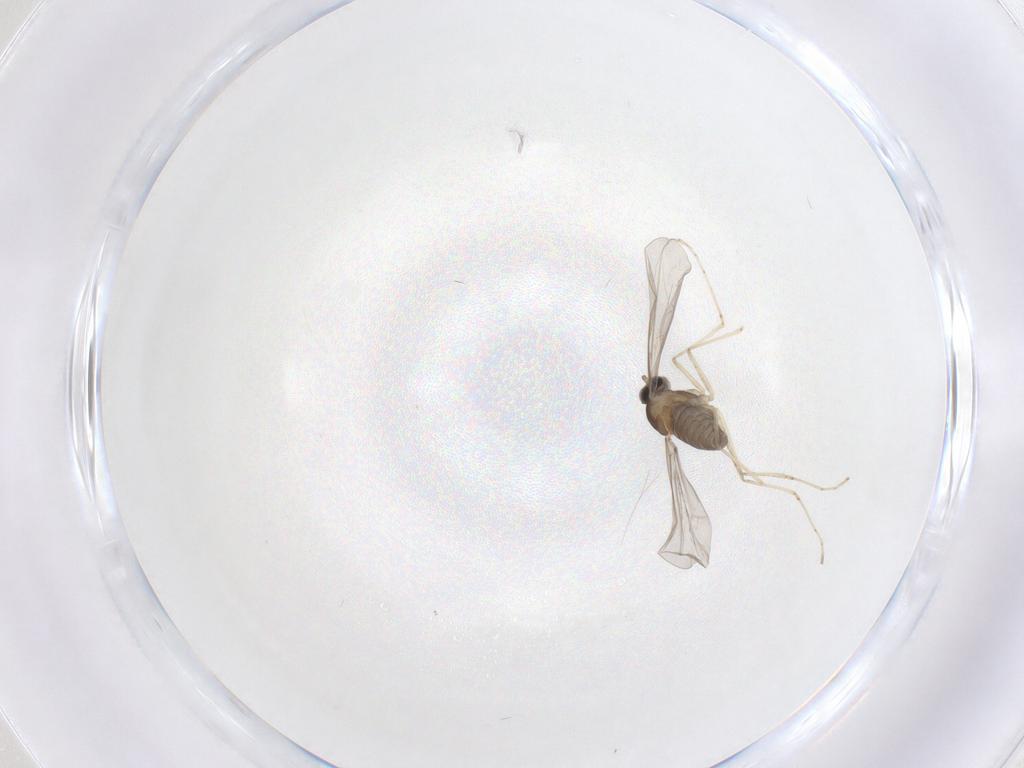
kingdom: Animalia
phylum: Arthropoda
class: Insecta
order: Diptera
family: Cecidomyiidae
